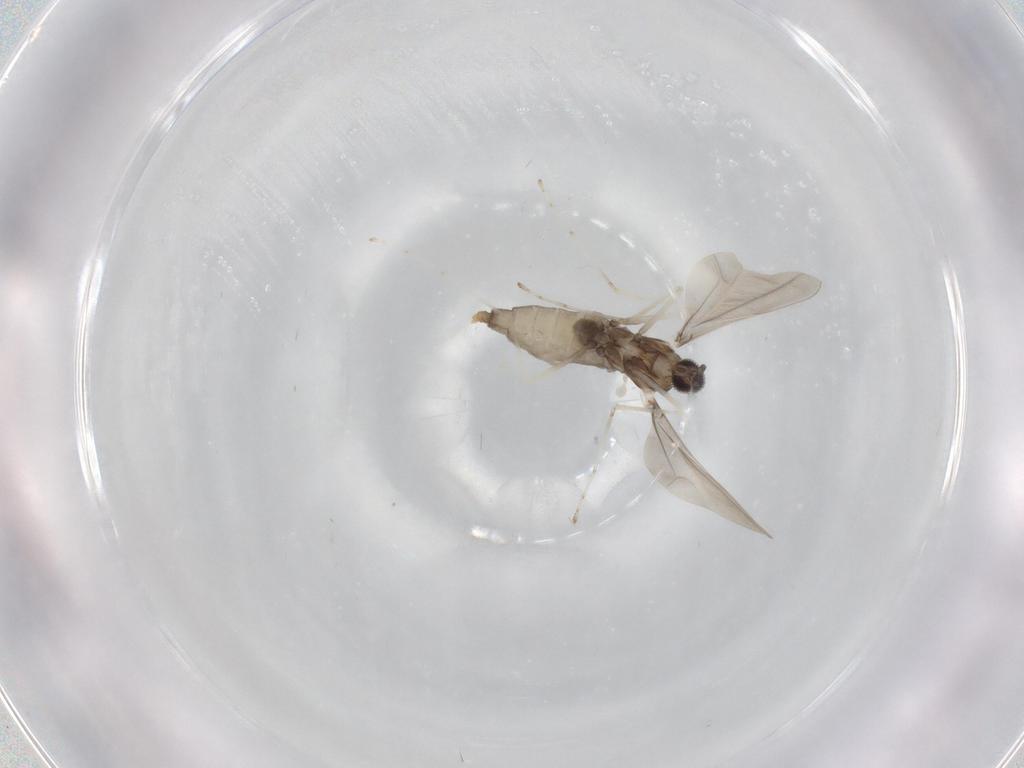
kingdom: Animalia
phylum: Arthropoda
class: Insecta
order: Diptera
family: Cecidomyiidae
